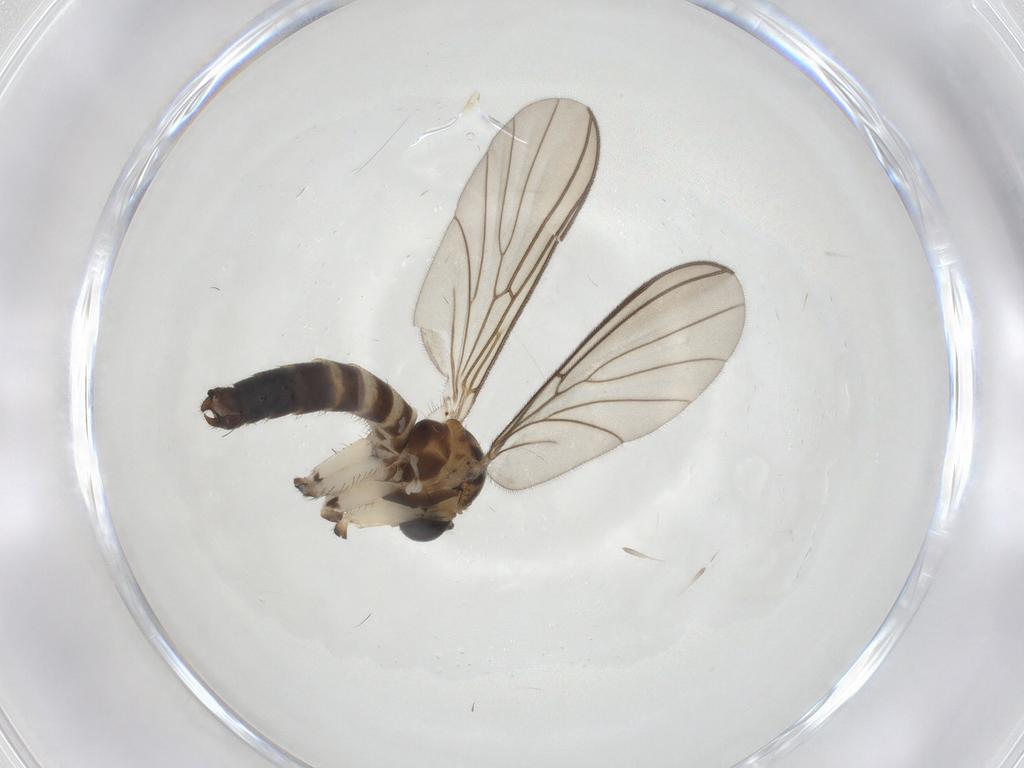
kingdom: Animalia
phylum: Arthropoda
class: Insecta
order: Diptera
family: Mycetophilidae
